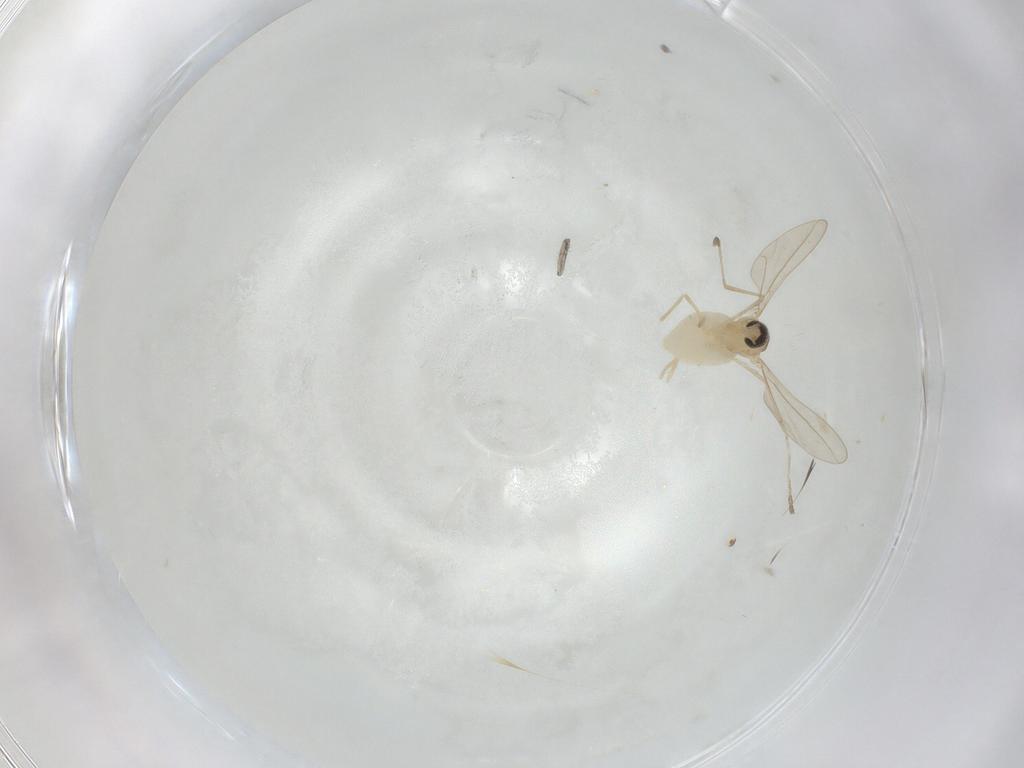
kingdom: Animalia
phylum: Arthropoda
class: Insecta
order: Diptera
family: Cecidomyiidae
